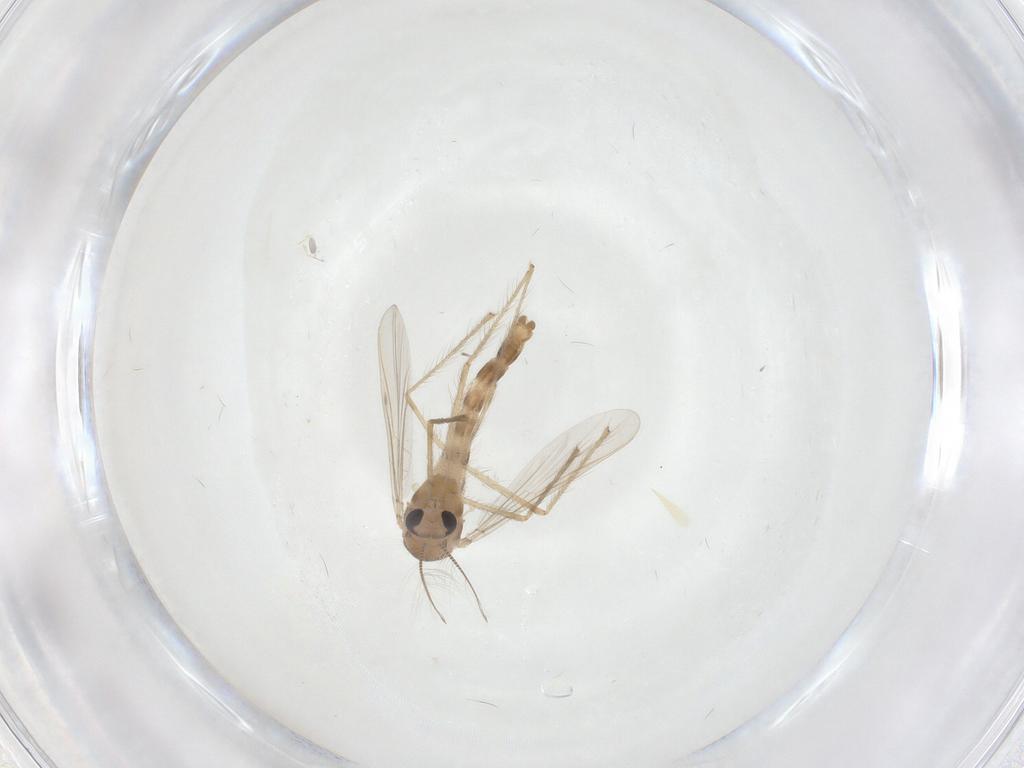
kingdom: Animalia
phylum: Arthropoda
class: Insecta
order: Diptera
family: Chironomidae
